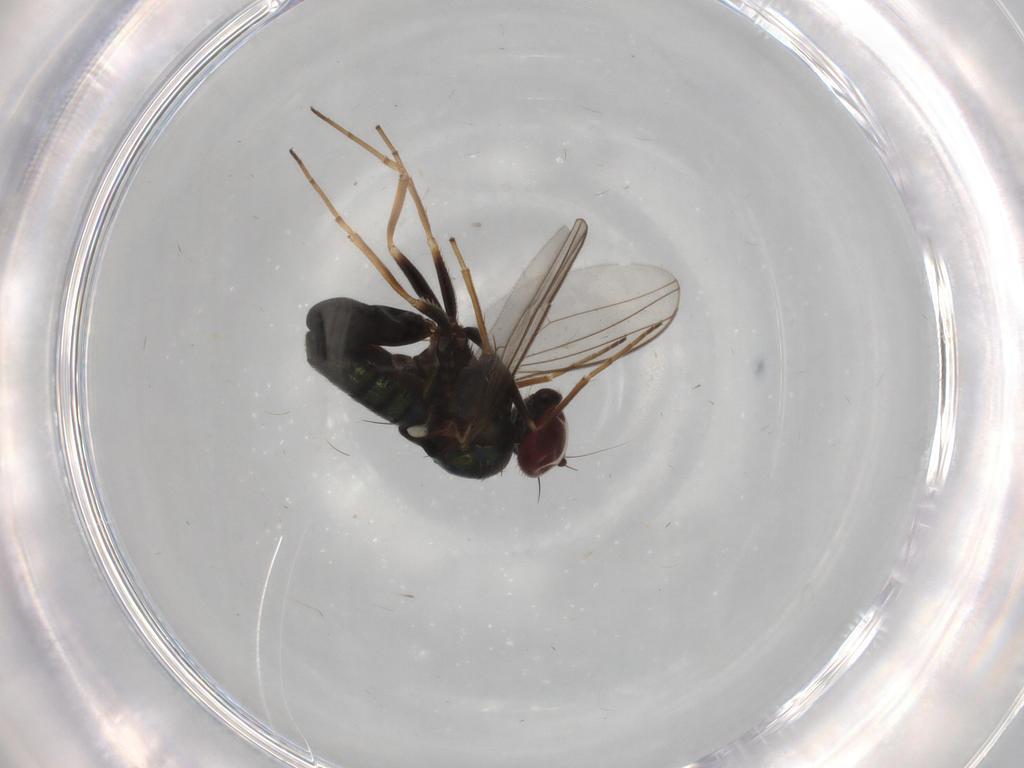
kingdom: Animalia
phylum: Arthropoda
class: Insecta
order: Diptera
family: Dolichopodidae
